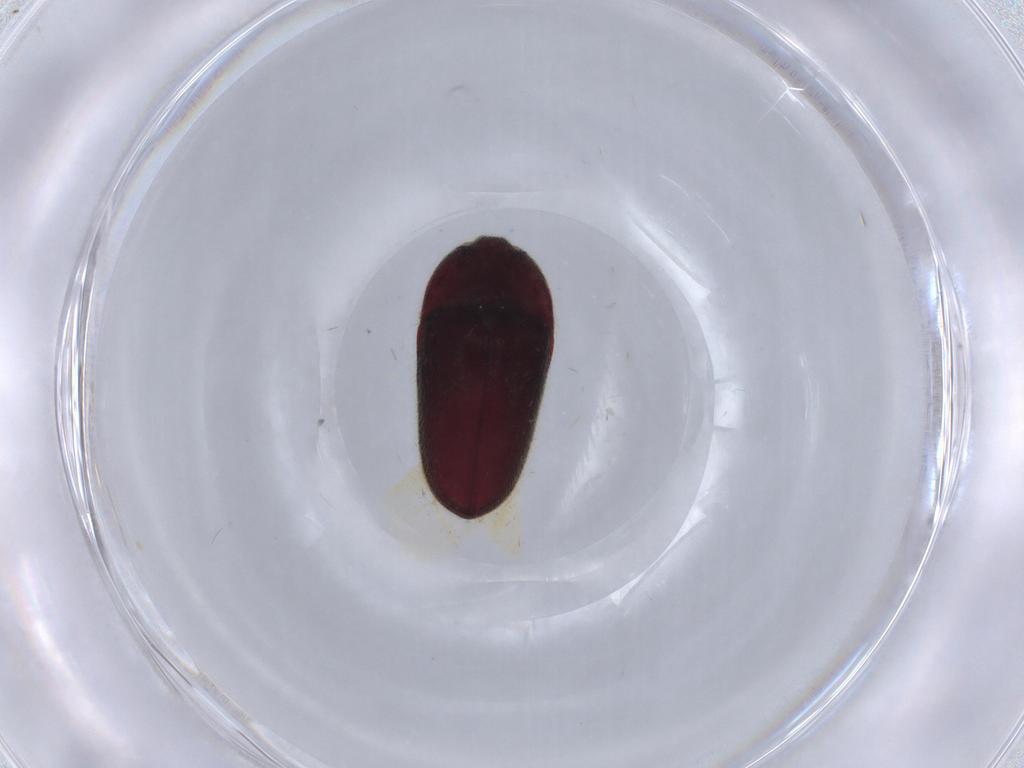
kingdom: Animalia
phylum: Arthropoda
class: Insecta
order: Coleoptera
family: Throscidae
